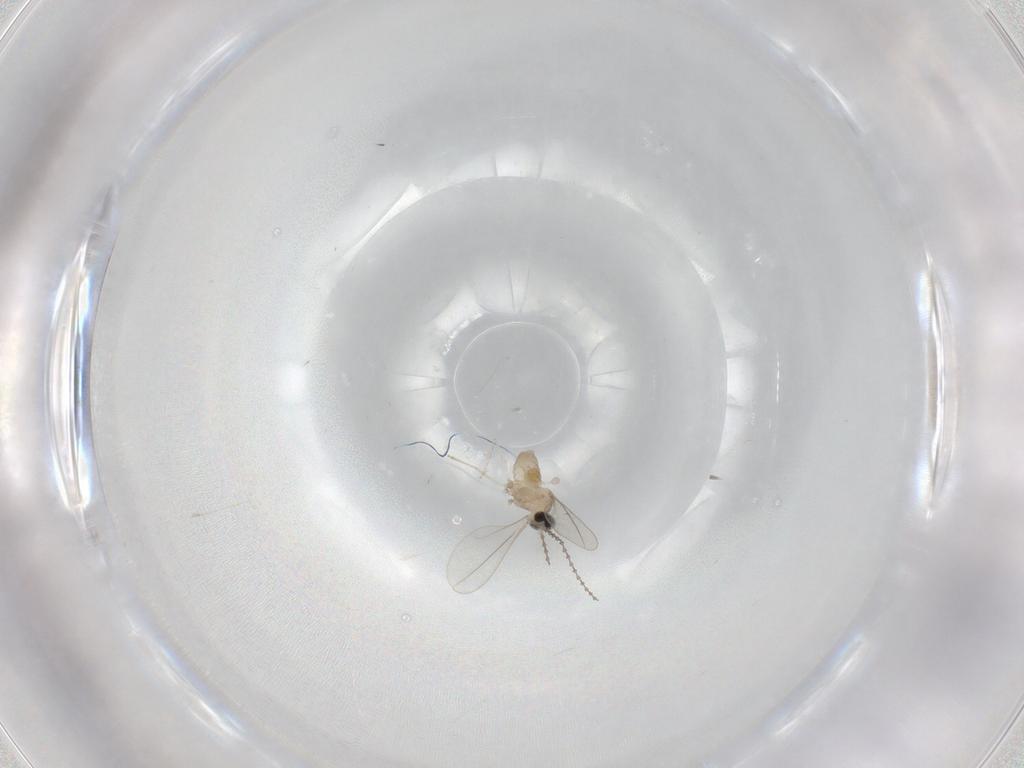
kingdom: Animalia
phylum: Arthropoda
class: Insecta
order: Diptera
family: Cecidomyiidae
